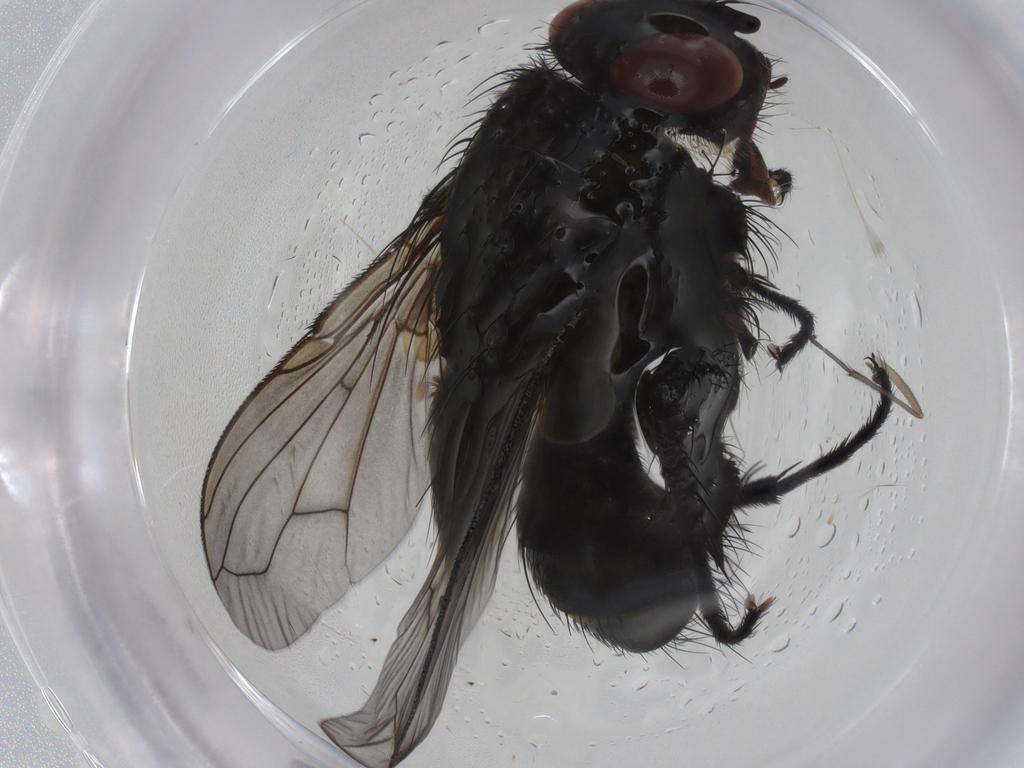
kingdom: Animalia
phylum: Arthropoda
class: Insecta
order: Diptera
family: Tachinidae
